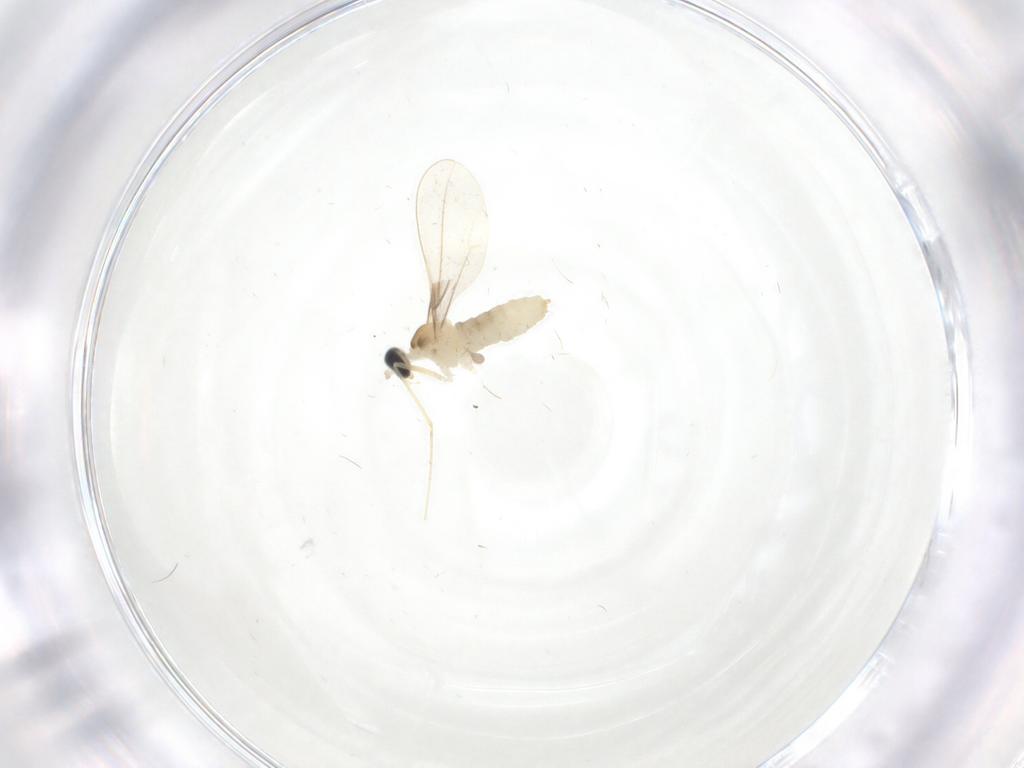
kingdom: Animalia
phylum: Arthropoda
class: Insecta
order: Diptera
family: Cecidomyiidae
